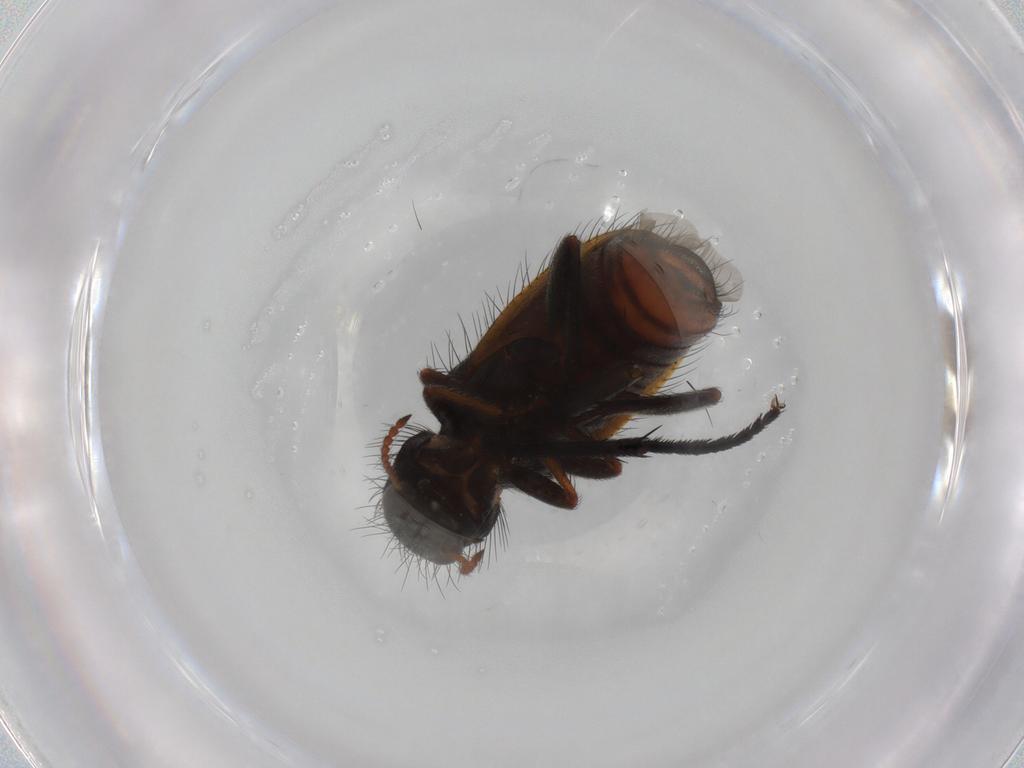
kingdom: Animalia
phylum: Arthropoda
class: Insecta
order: Coleoptera
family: Melyridae
